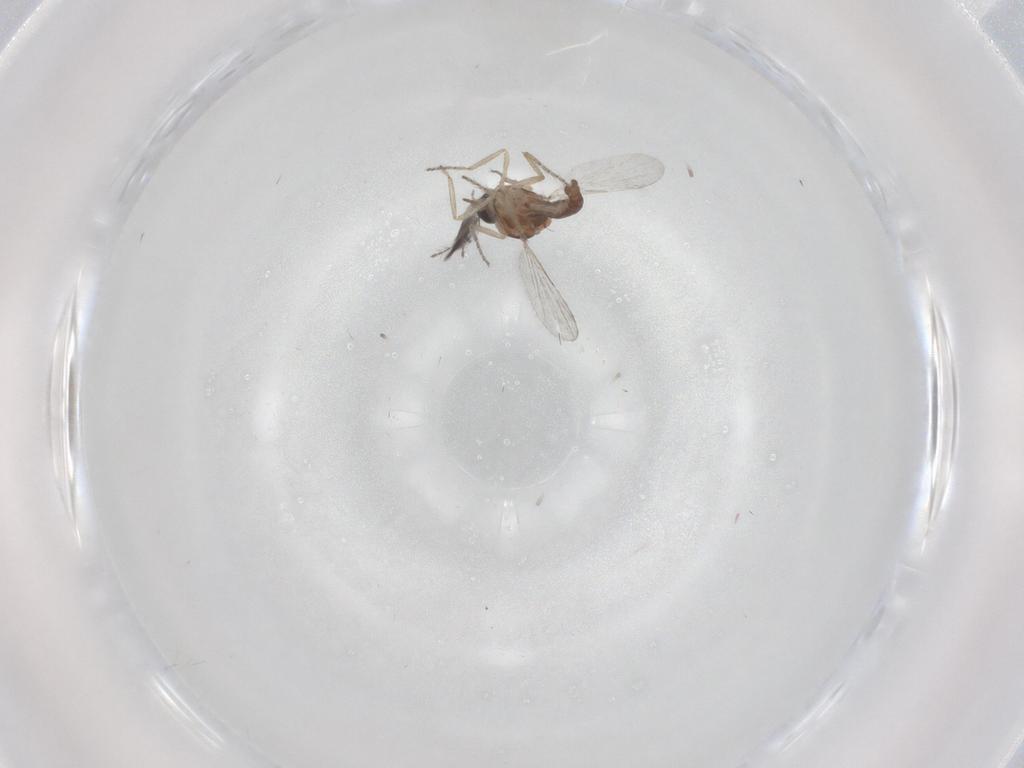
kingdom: Animalia
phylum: Arthropoda
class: Insecta
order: Diptera
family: Ceratopogonidae
